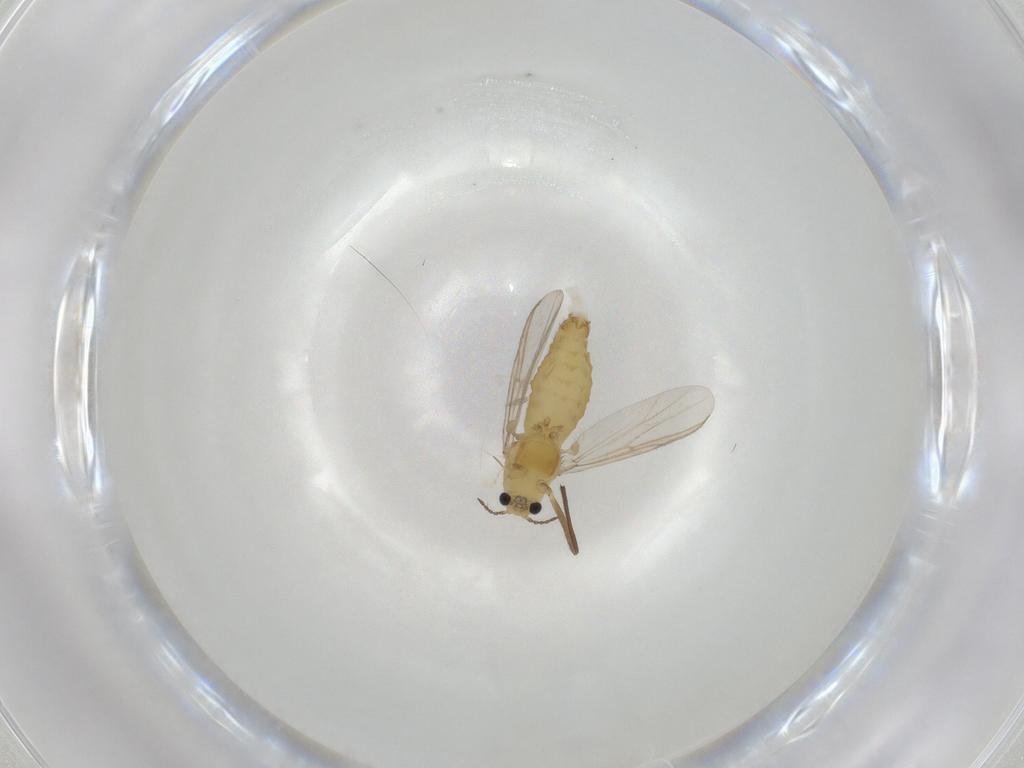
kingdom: Animalia
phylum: Arthropoda
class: Insecta
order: Diptera
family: Chironomidae
